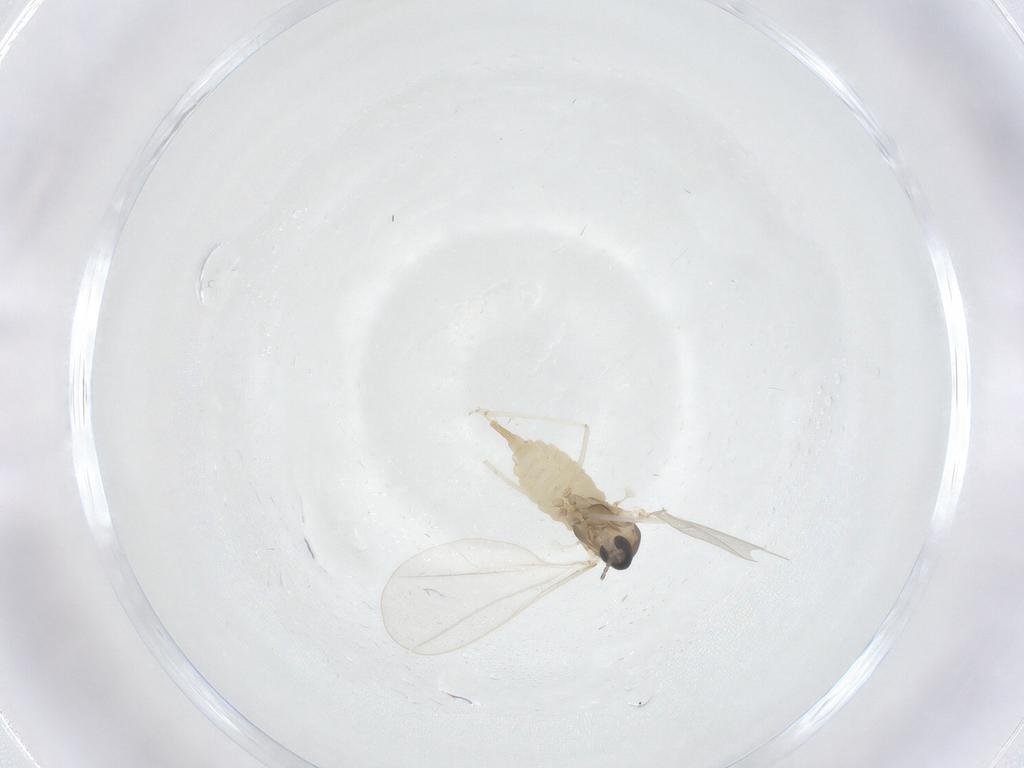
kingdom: Animalia
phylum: Arthropoda
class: Insecta
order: Diptera
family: Cecidomyiidae
